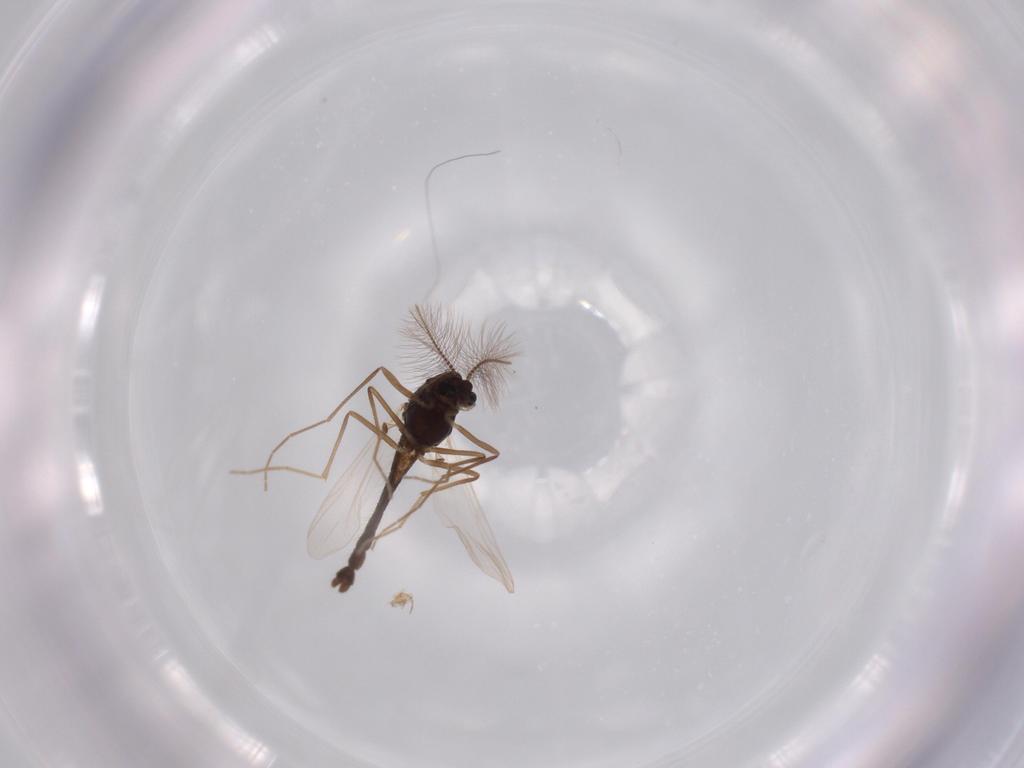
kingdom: Animalia
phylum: Arthropoda
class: Insecta
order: Diptera
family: Chironomidae
